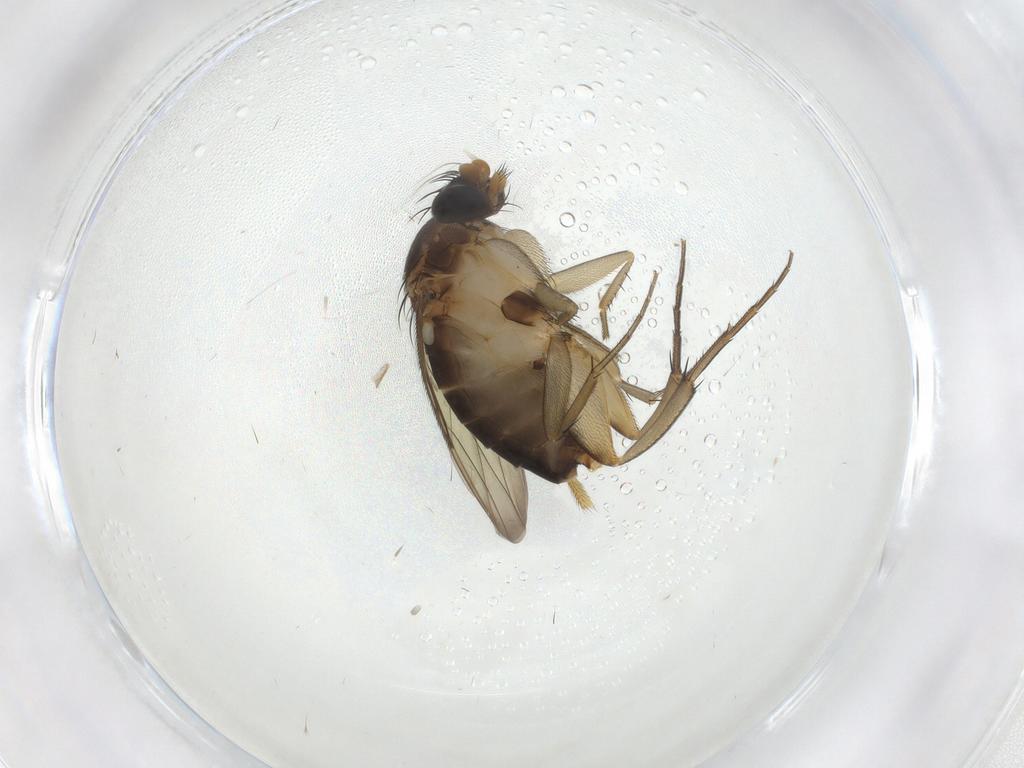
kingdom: Animalia
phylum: Arthropoda
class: Insecta
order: Diptera
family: Phoridae
